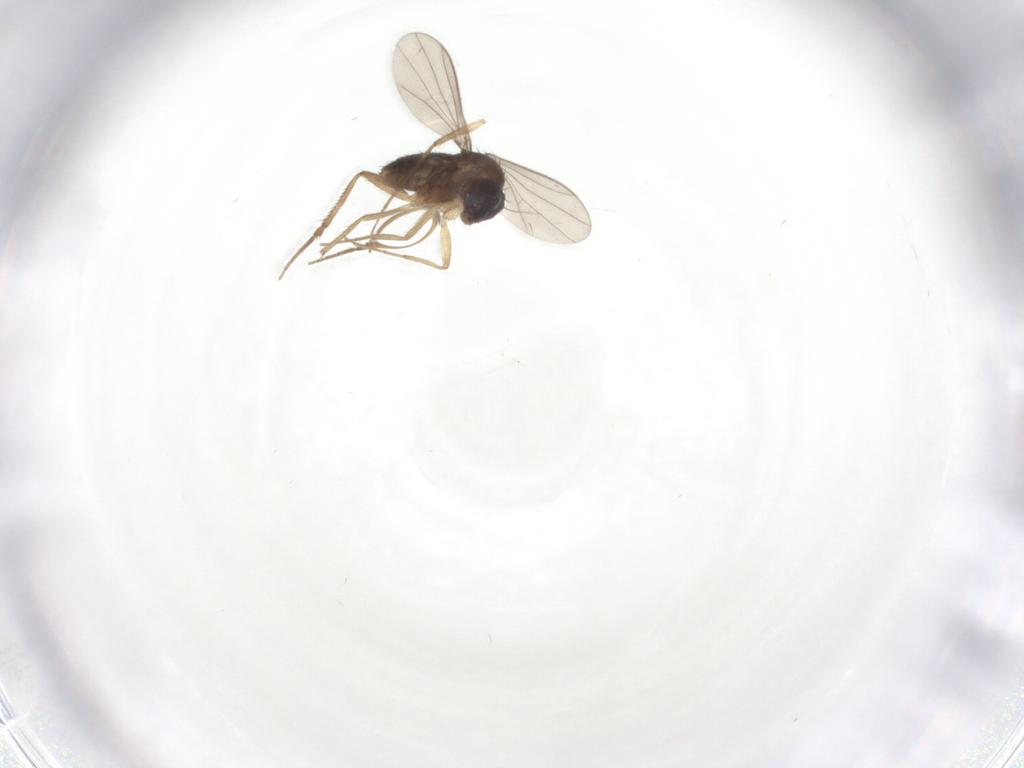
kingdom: Animalia
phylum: Arthropoda
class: Insecta
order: Diptera
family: Dolichopodidae
